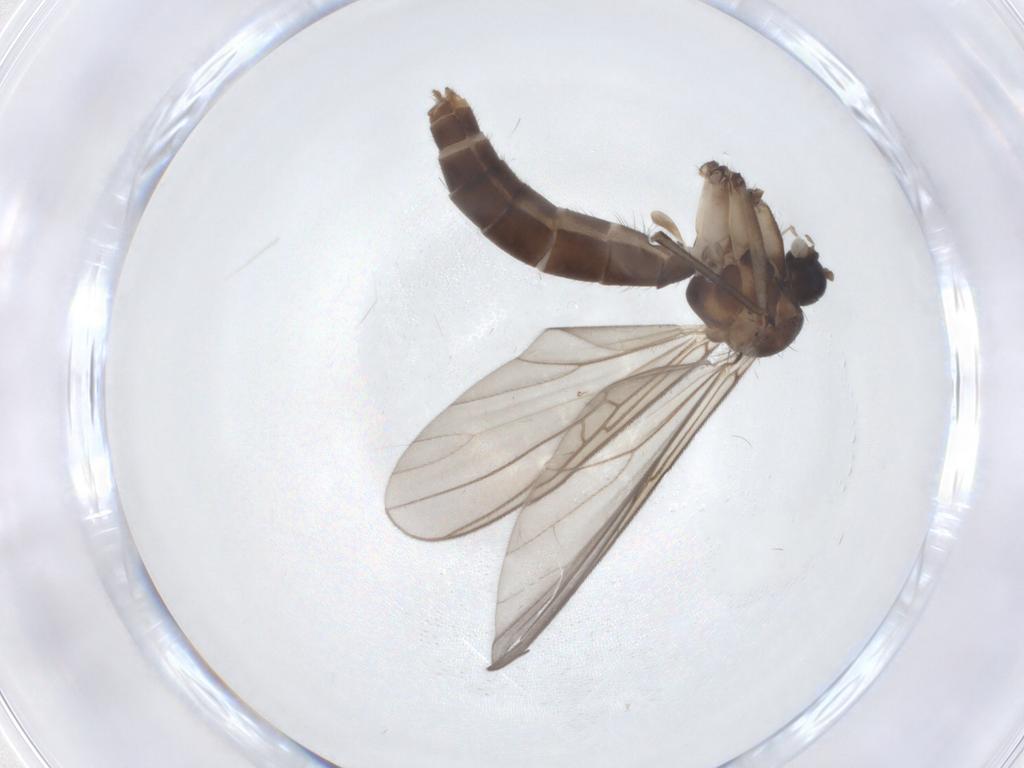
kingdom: Animalia
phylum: Arthropoda
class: Insecta
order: Diptera
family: Mycetophilidae
